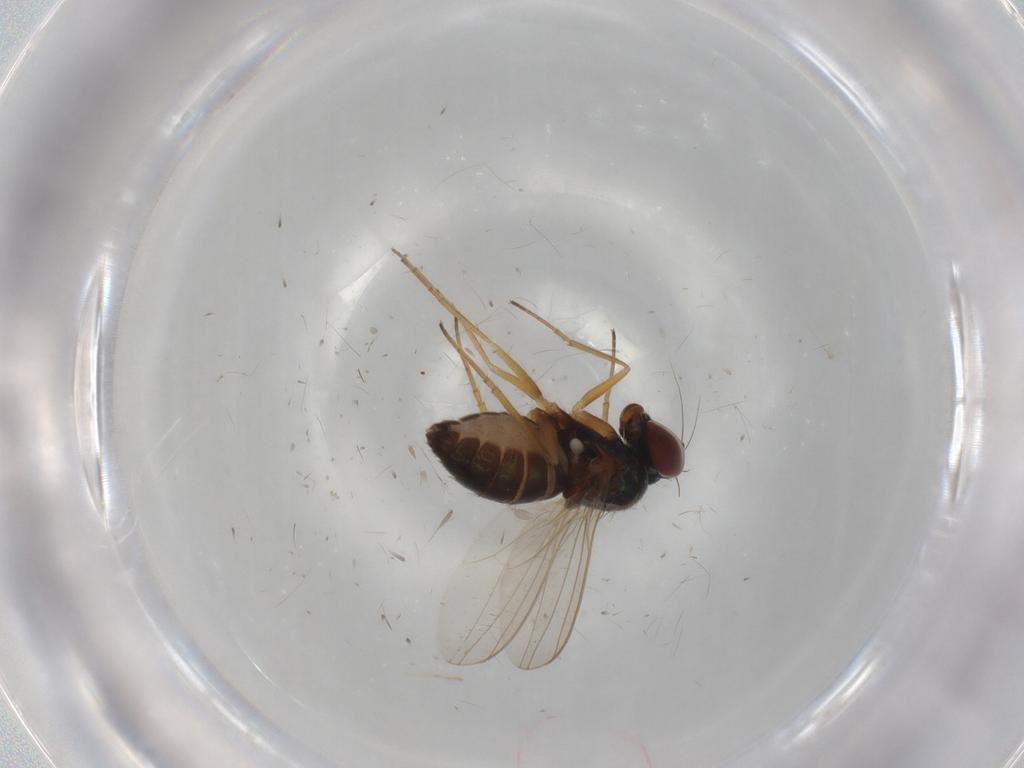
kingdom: Animalia
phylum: Arthropoda
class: Insecta
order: Diptera
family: Dolichopodidae
